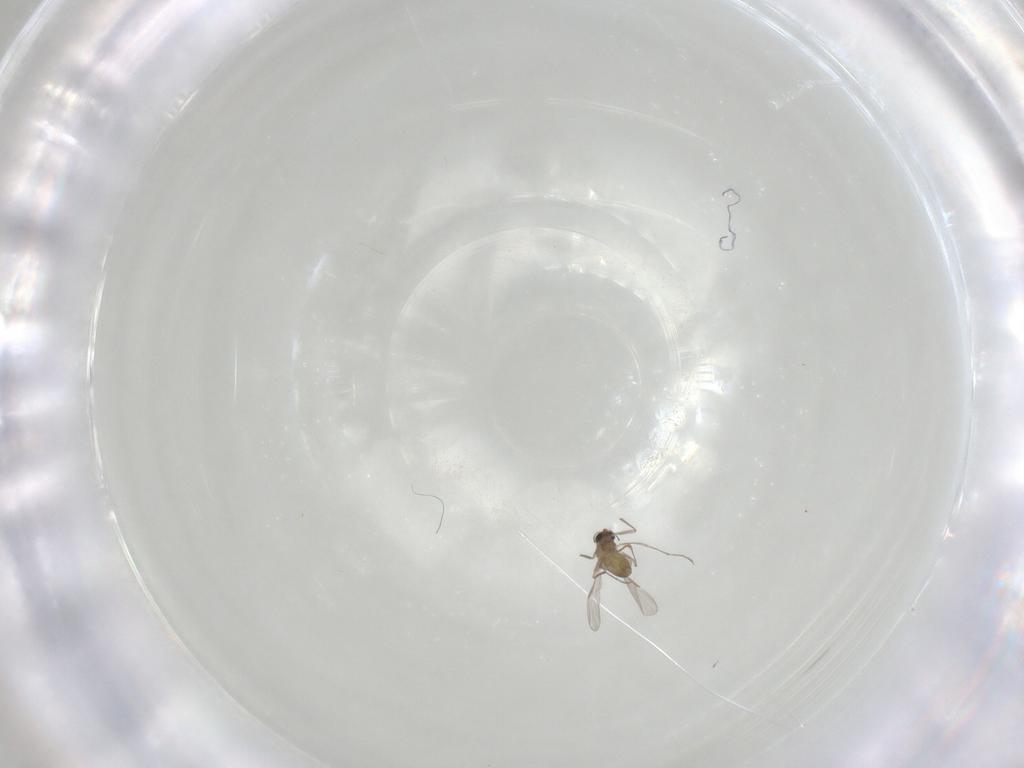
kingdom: Animalia
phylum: Arthropoda
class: Insecta
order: Diptera
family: Chironomidae
